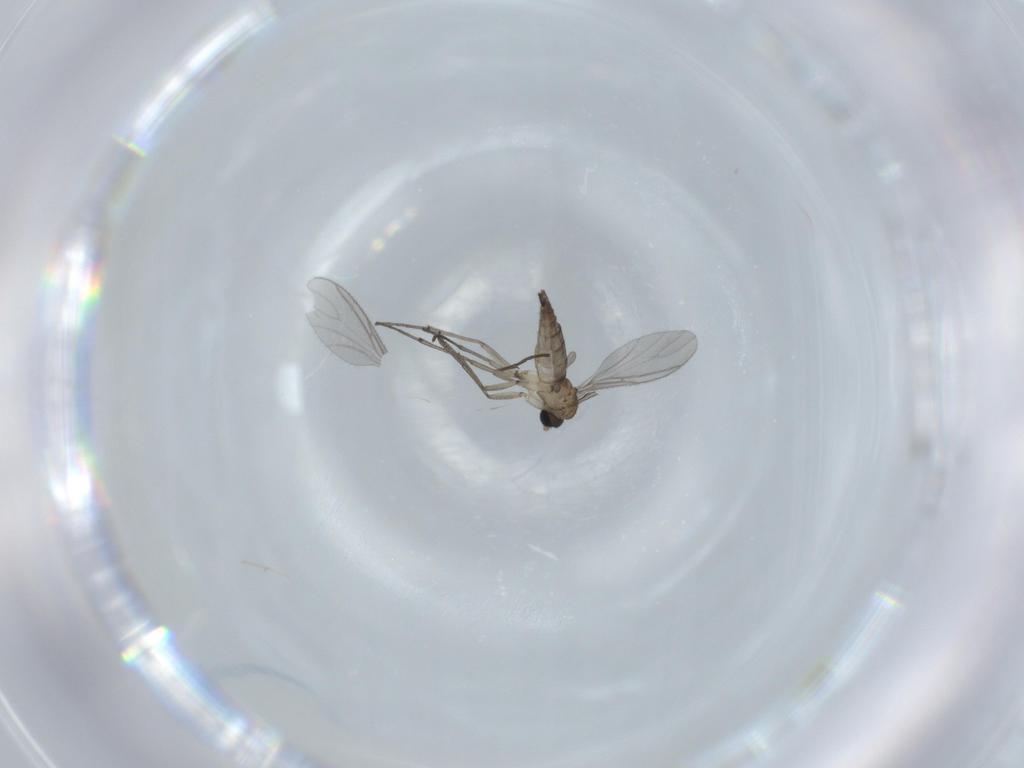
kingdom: Animalia
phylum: Arthropoda
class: Insecta
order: Diptera
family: Sciaridae
